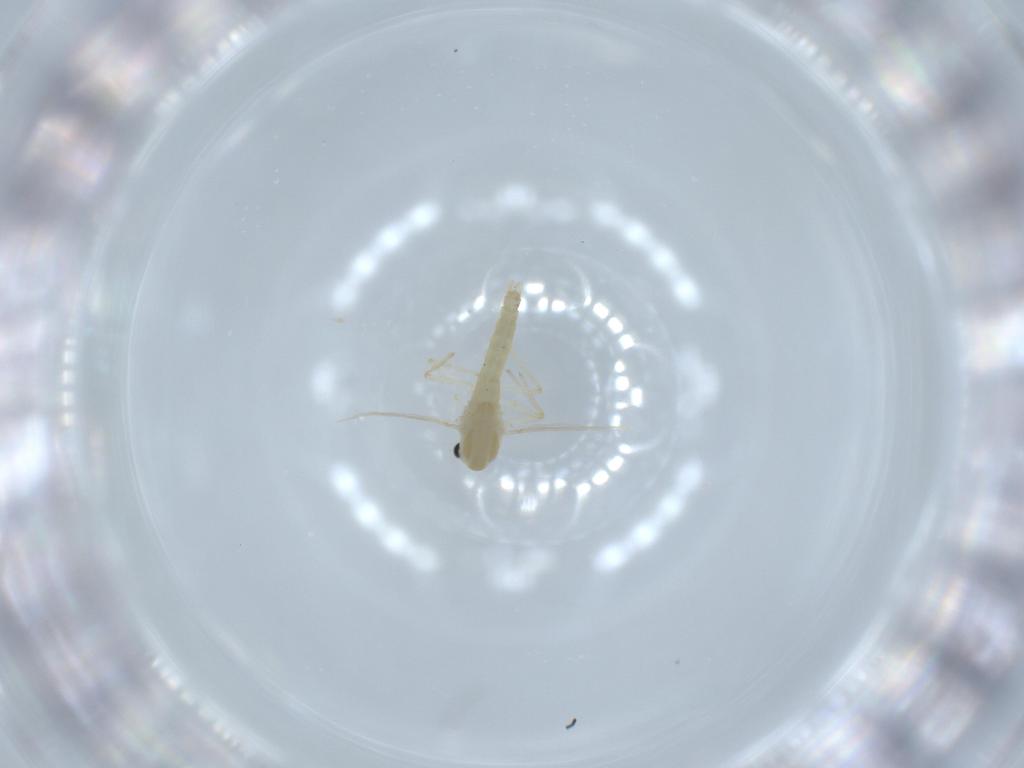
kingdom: Animalia
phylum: Arthropoda
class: Insecta
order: Diptera
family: Chironomidae
